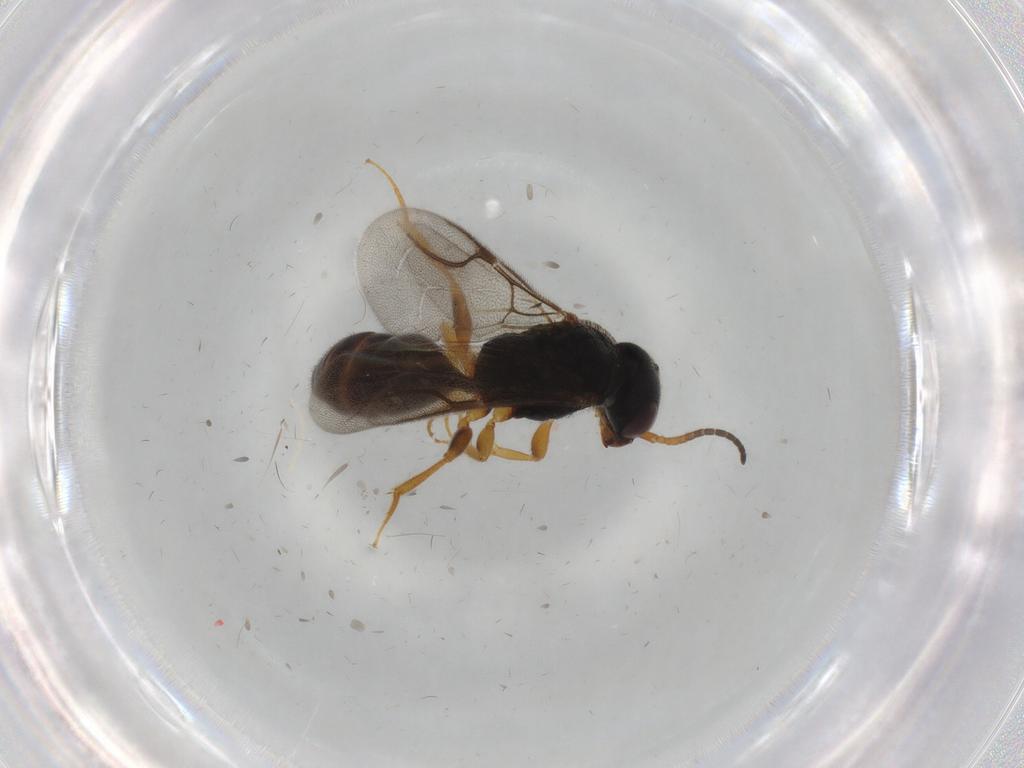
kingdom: Animalia
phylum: Arthropoda
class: Insecta
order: Hymenoptera
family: Bethylidae
